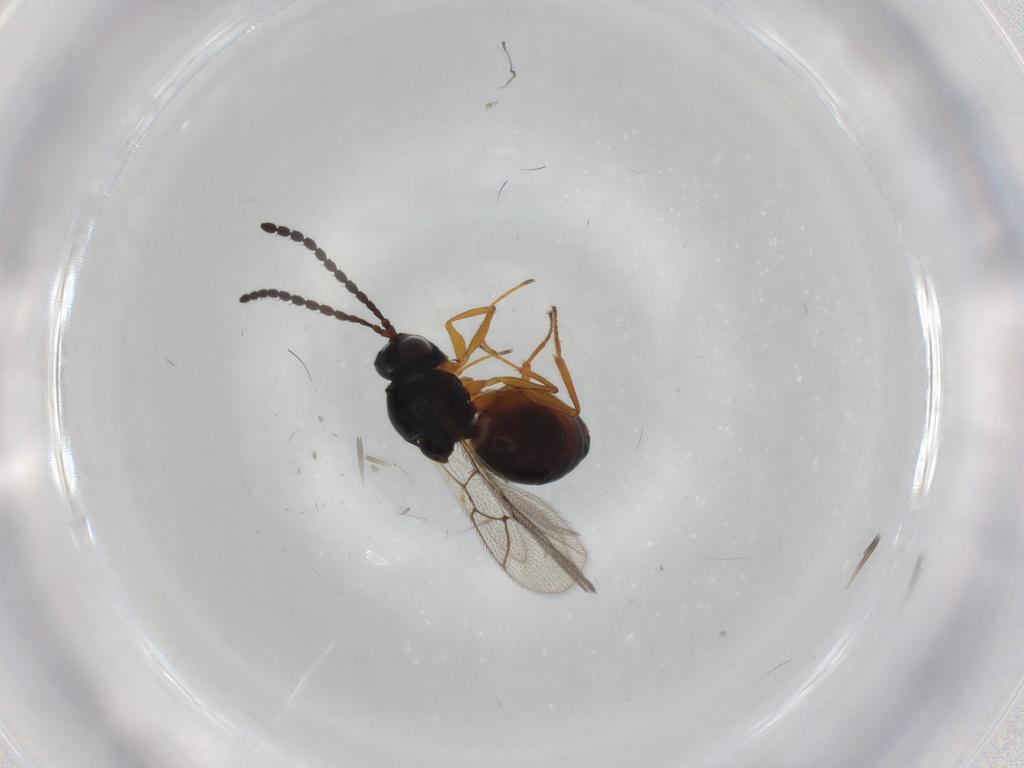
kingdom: Animalia
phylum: Arthropoda
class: Insecta
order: Hymenoptera
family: Figitidae
